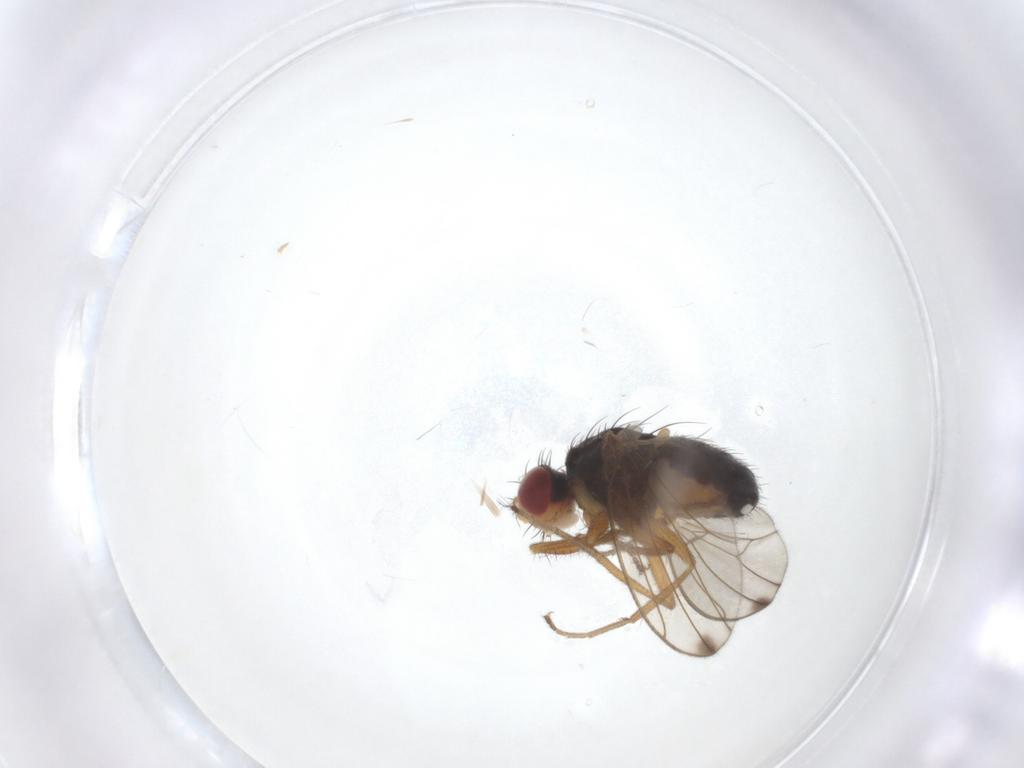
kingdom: Animalia
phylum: Arthropoda
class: Insecta
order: Diptera
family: Drosophilidae
